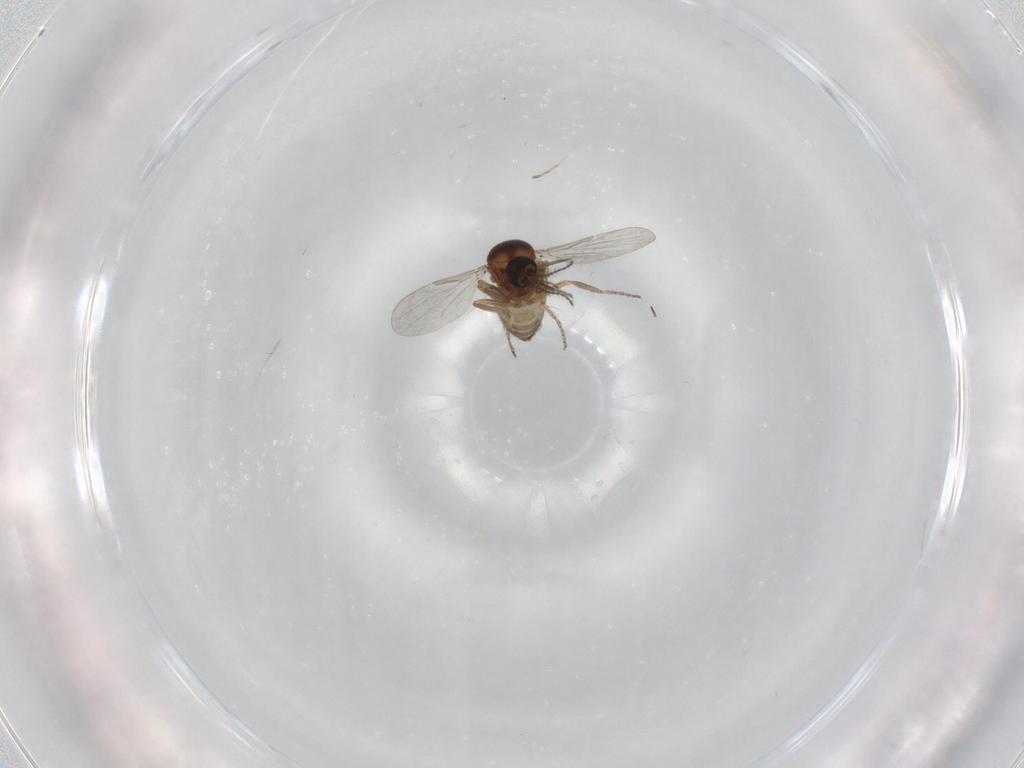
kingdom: Animalia
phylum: Arthropoda
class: Insecta
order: Diptera
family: Ceratopogonidae
